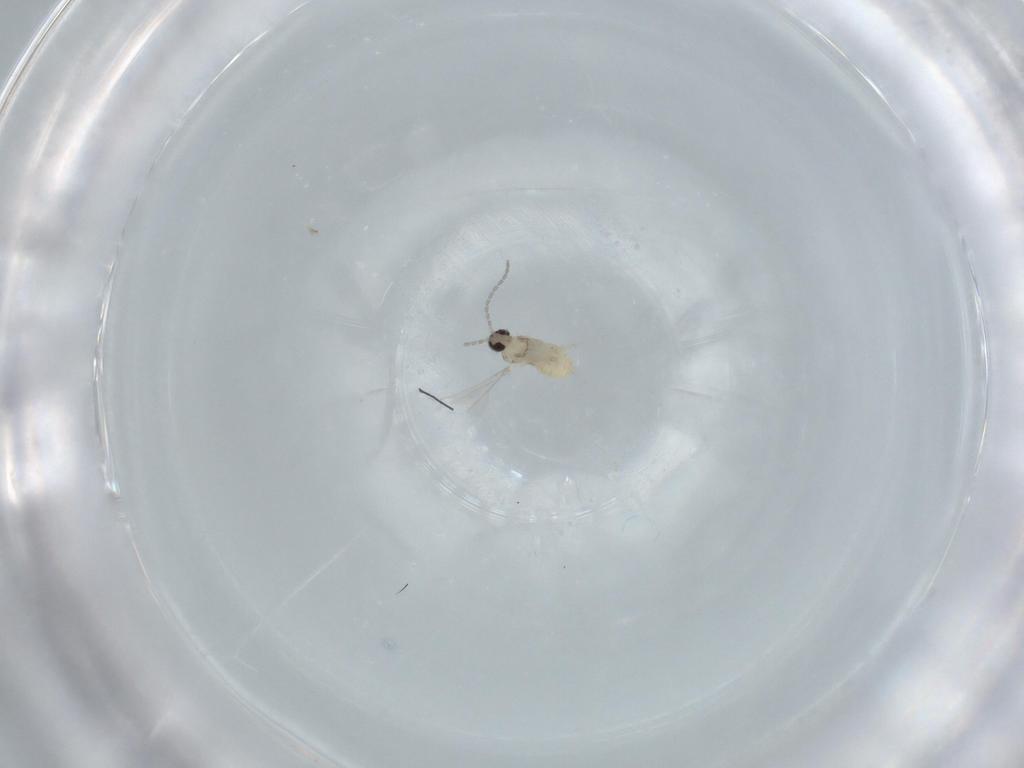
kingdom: Animalia
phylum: Arthropoda
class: Insecta
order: Diptera
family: Cecidomyiidae
